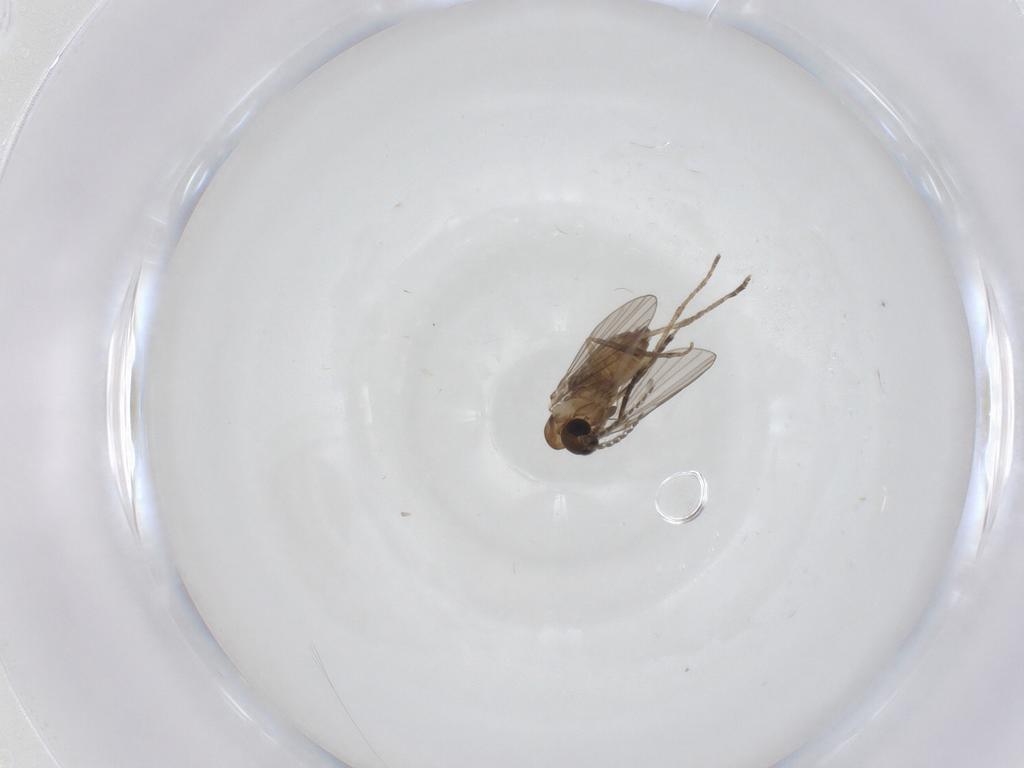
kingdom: Animalia
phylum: Arthropoda
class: Insecta
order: Diptera
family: Phoridae
